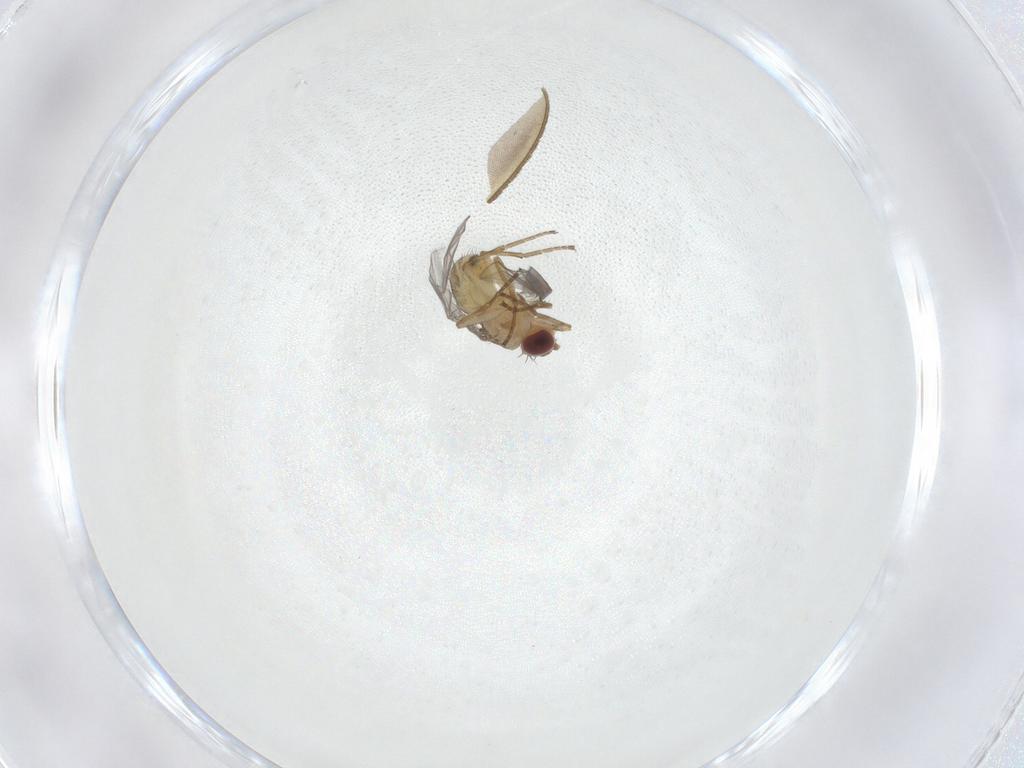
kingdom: Animalia
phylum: Arthropoda
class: Insecta
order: Diptera
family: Agromyzidae
